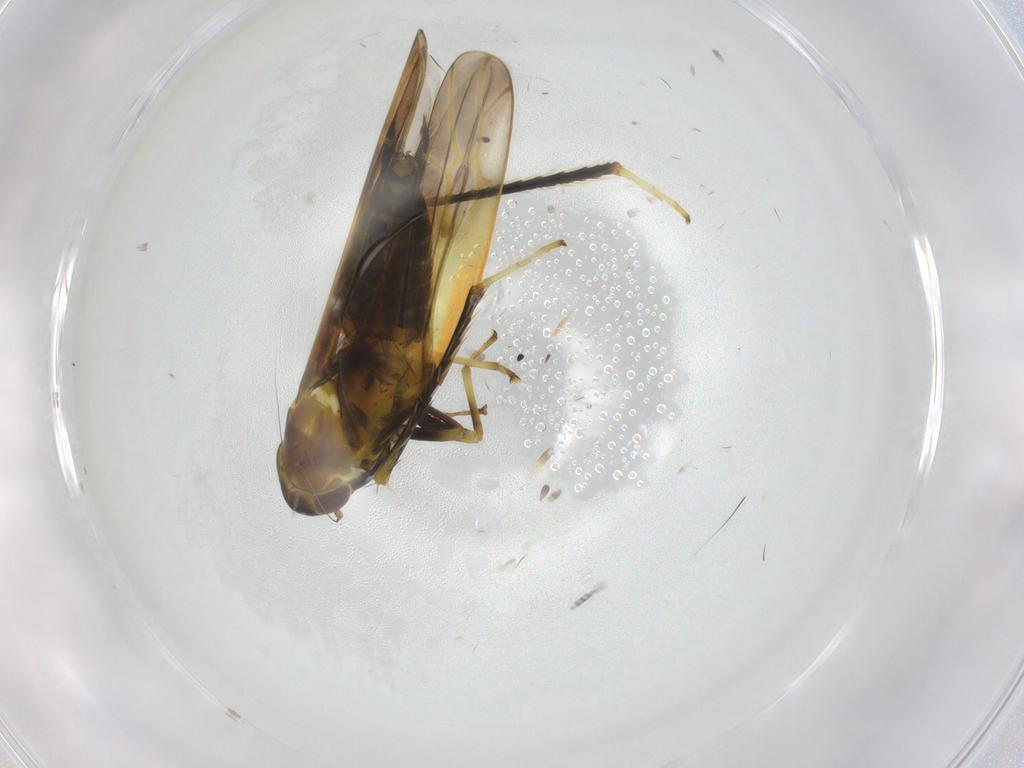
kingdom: Animalia
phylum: Arthropoda
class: Insecta
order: Hemiptera
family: Cicadellidae
